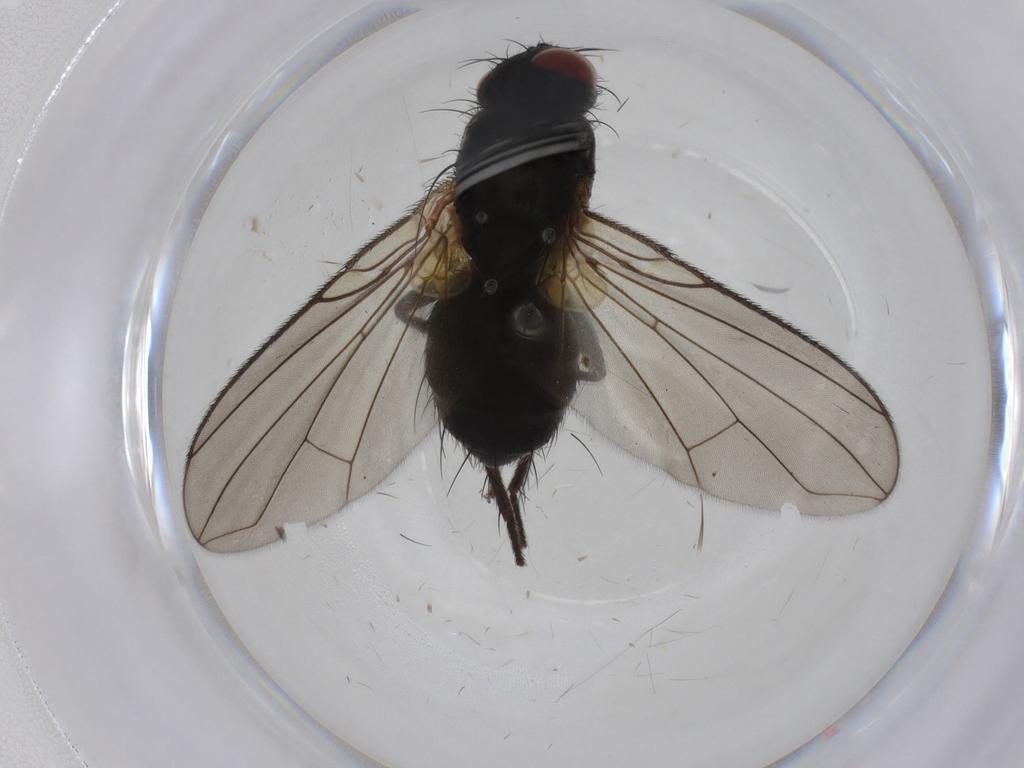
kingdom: Animalia
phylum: Arthropoda
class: Insecta
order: Diptera
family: Tachinidae
